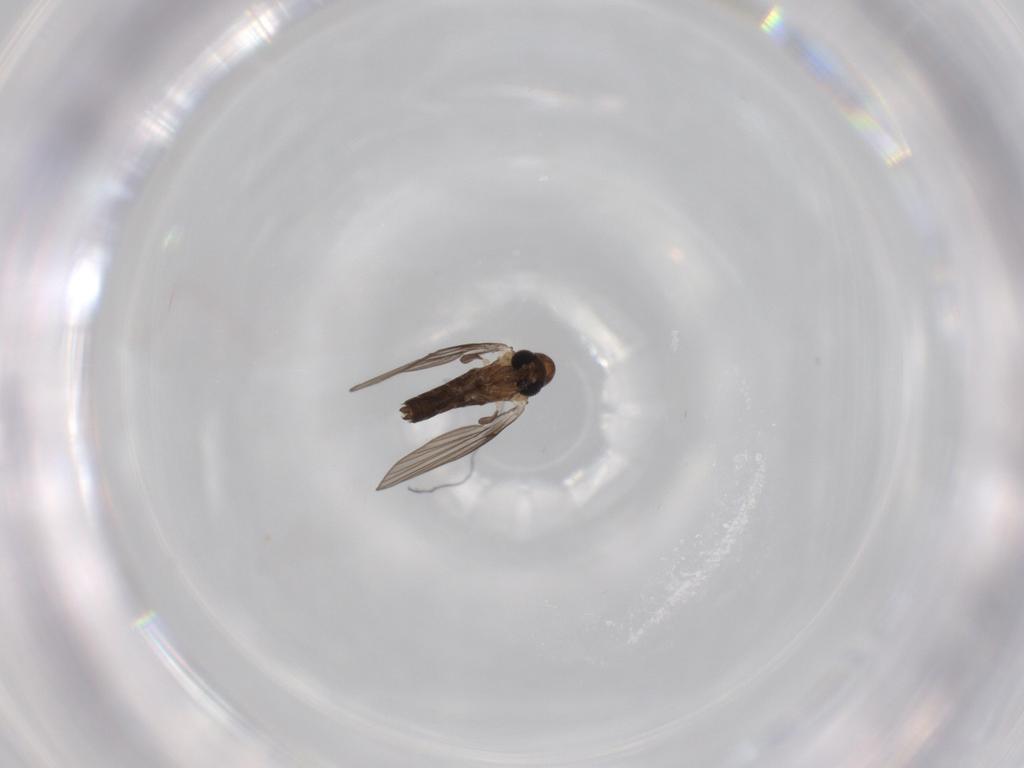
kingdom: Animalia
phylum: Arthropoda
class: Insecta
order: Diptera
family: Psychodidae
